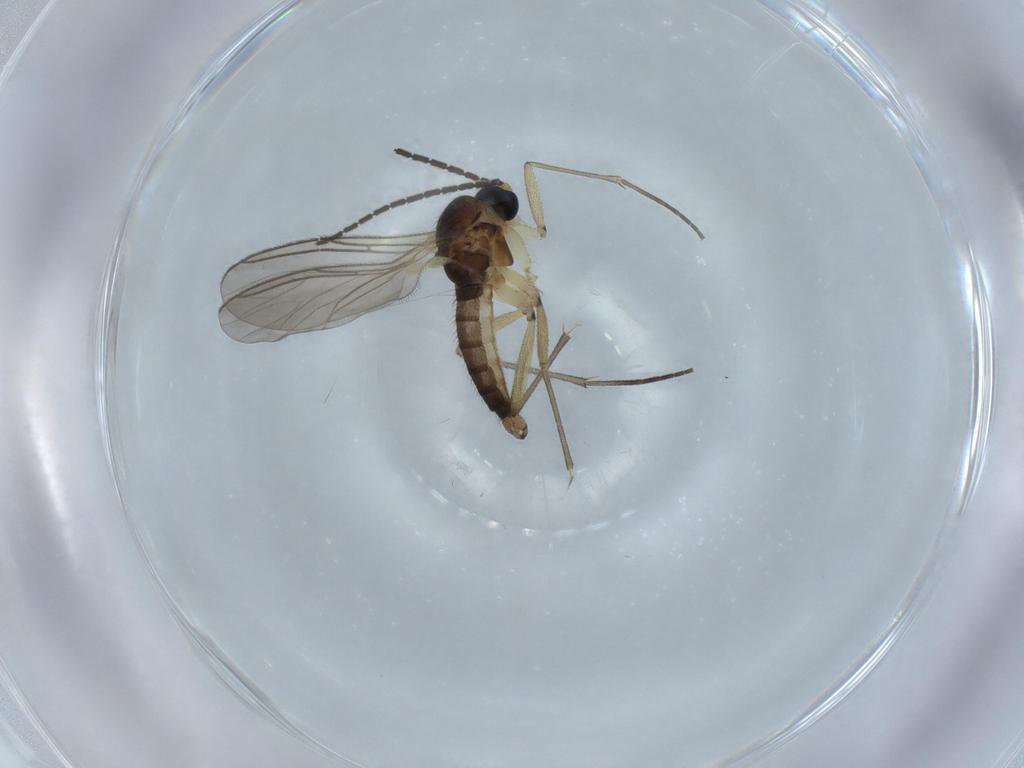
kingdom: Animalia
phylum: Arthropoda
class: Insecta
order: Diptera
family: Sciaridae
